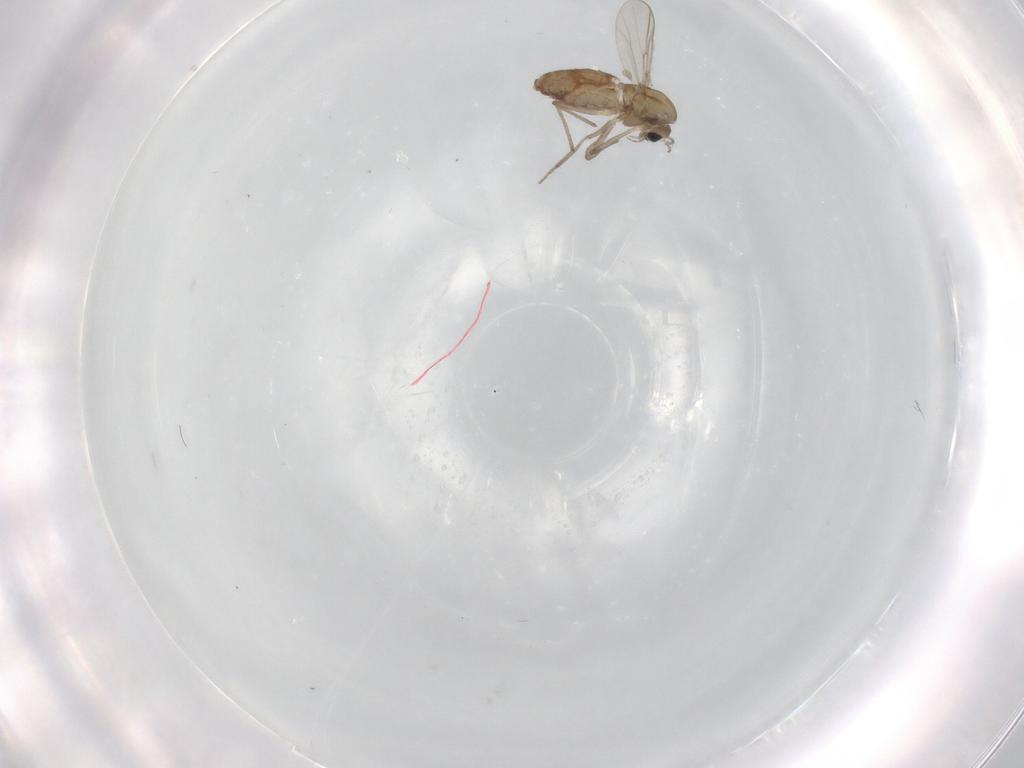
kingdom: Animalia
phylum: Arthropoda
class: Insecta
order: Diptera
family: Chironomidae
